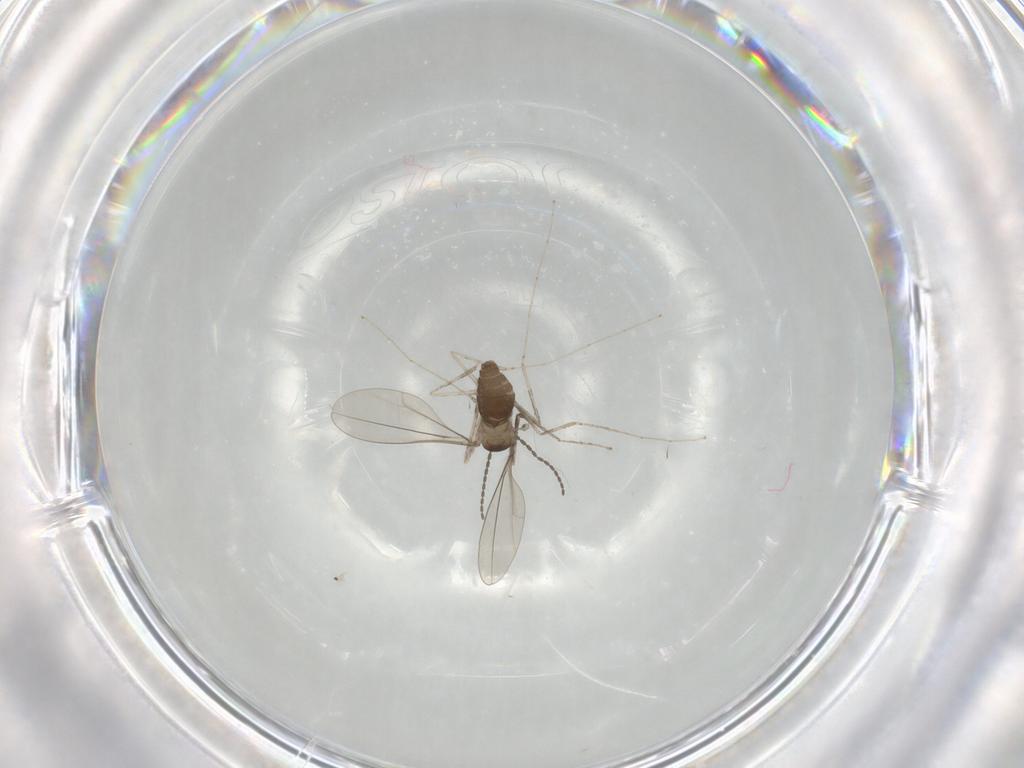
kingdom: Animalia
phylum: Arthropoda
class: Insecta
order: Diptera
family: Cecidomyiidae
